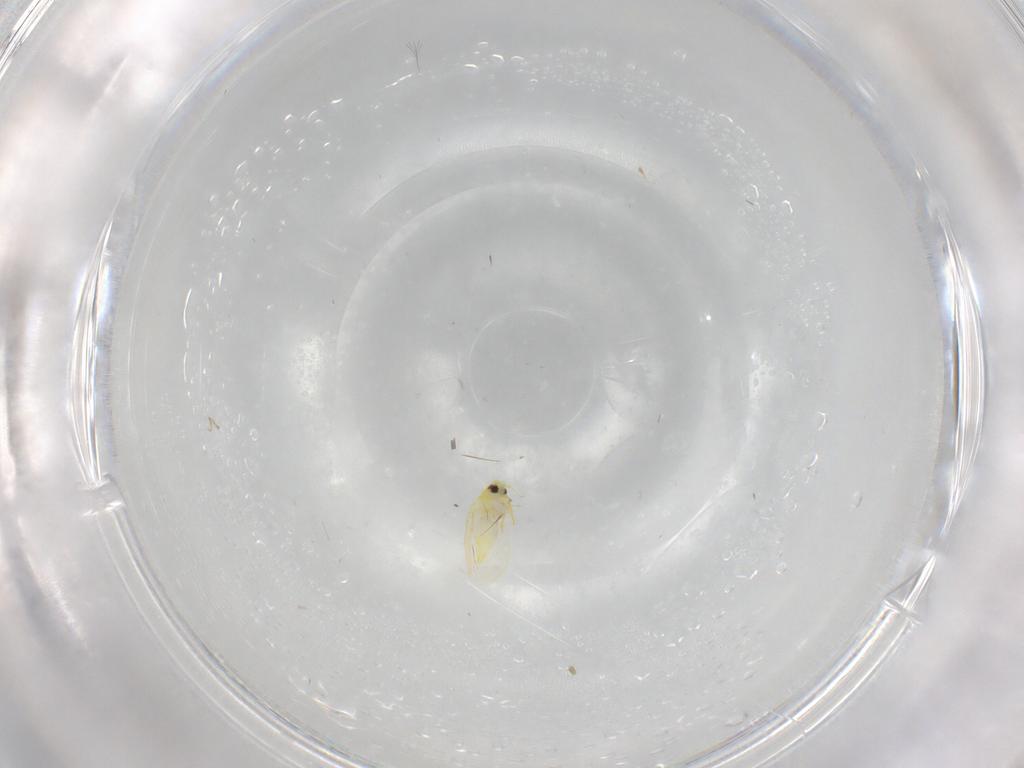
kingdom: Animalia
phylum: Arthropoda
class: Insecta
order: Hemiptera
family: Aleyrodidae
